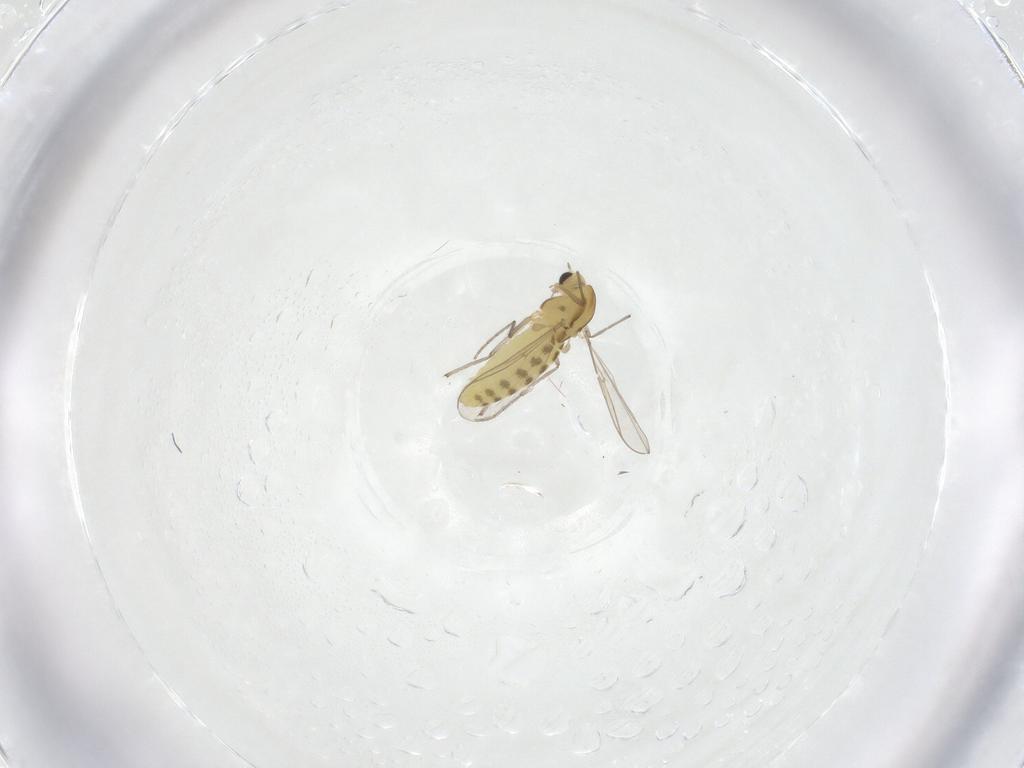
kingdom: Animalia
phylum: Arthropoda
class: Insecta
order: Diptera
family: Chironomidae
